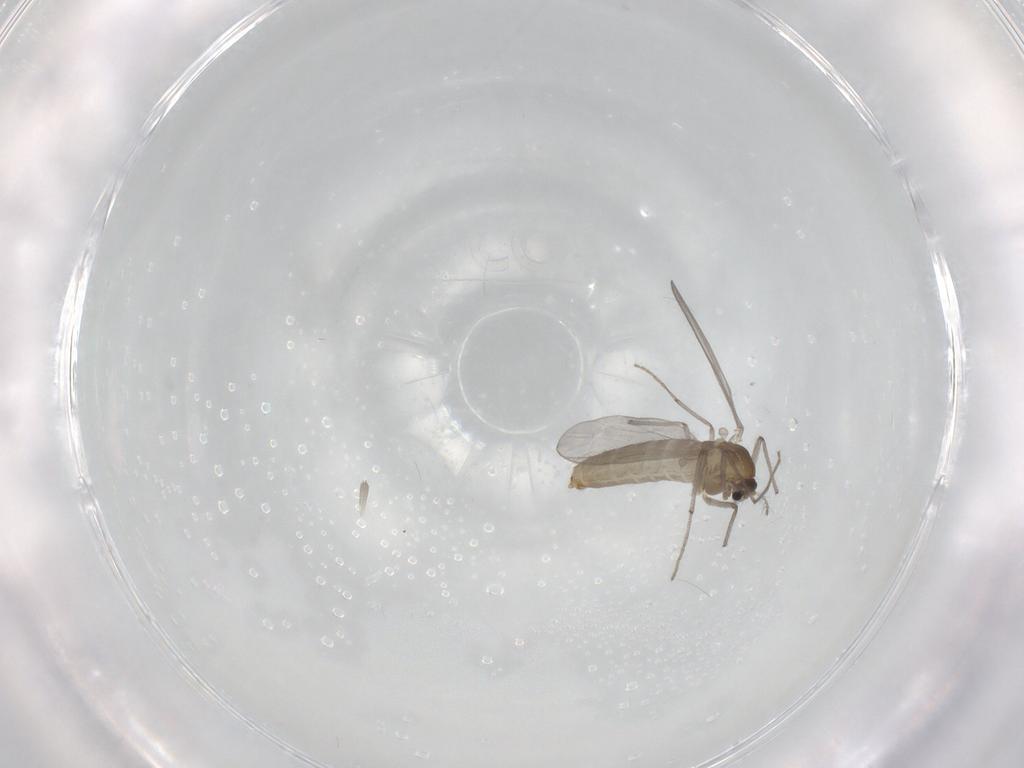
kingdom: Animalia
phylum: Arthropoda
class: Insecta
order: Diptera
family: Chironomidae
